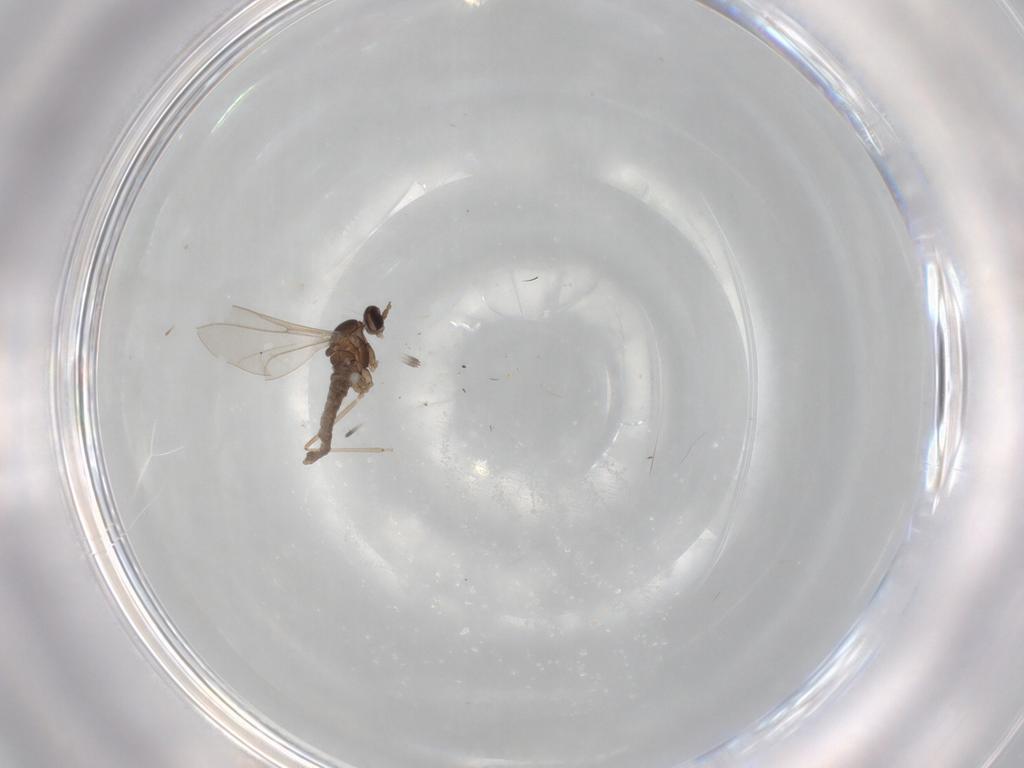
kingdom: Animalia
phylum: Arthropoda
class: Insecta
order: Diptera
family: Cecidomyiidae
